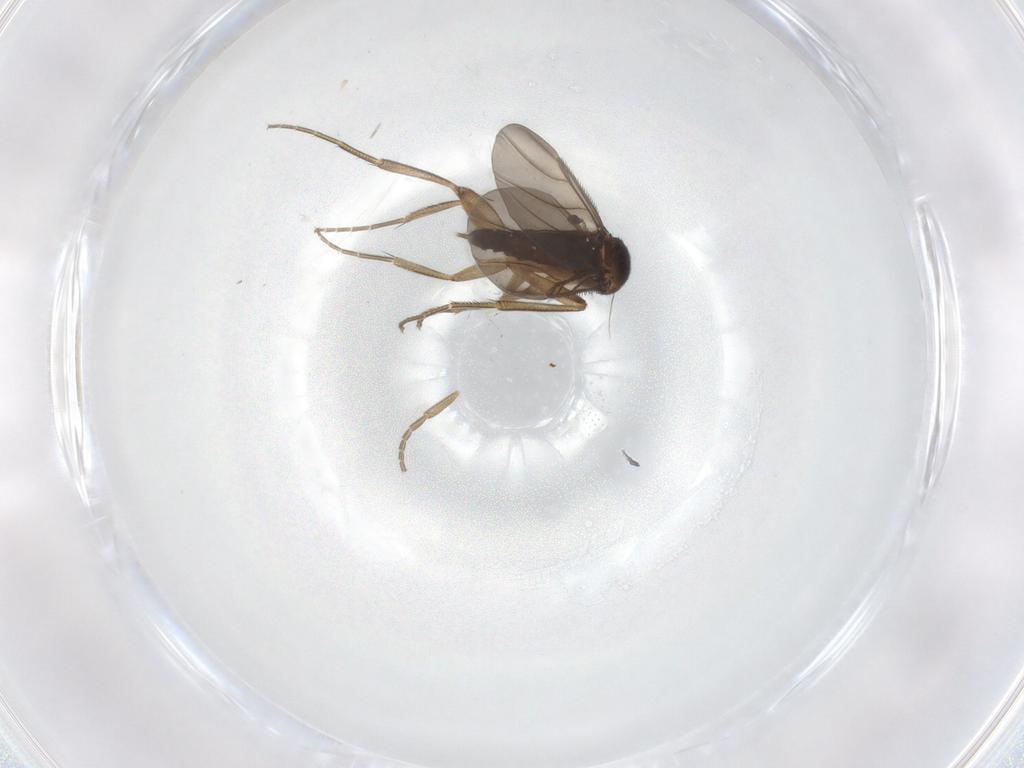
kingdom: Animalia
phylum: Arthropoda
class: Insecta
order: Diptera
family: Phoridae
